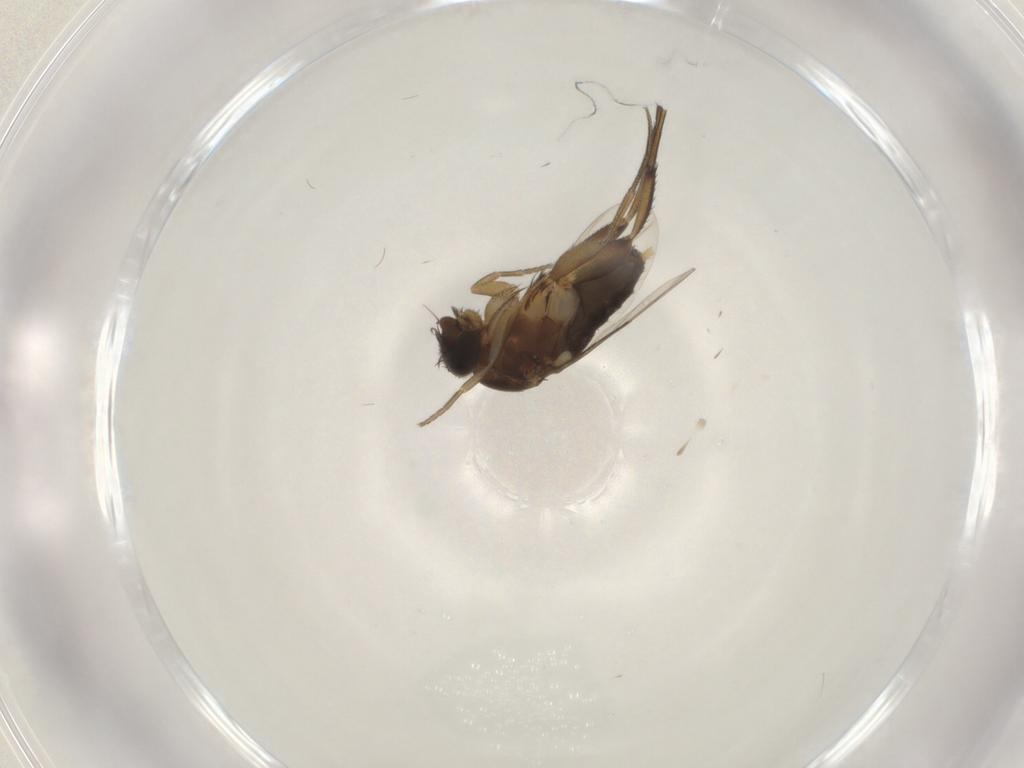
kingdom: Animalia
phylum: Arthropoda
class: Insecta
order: Diptera
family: Phoridae
